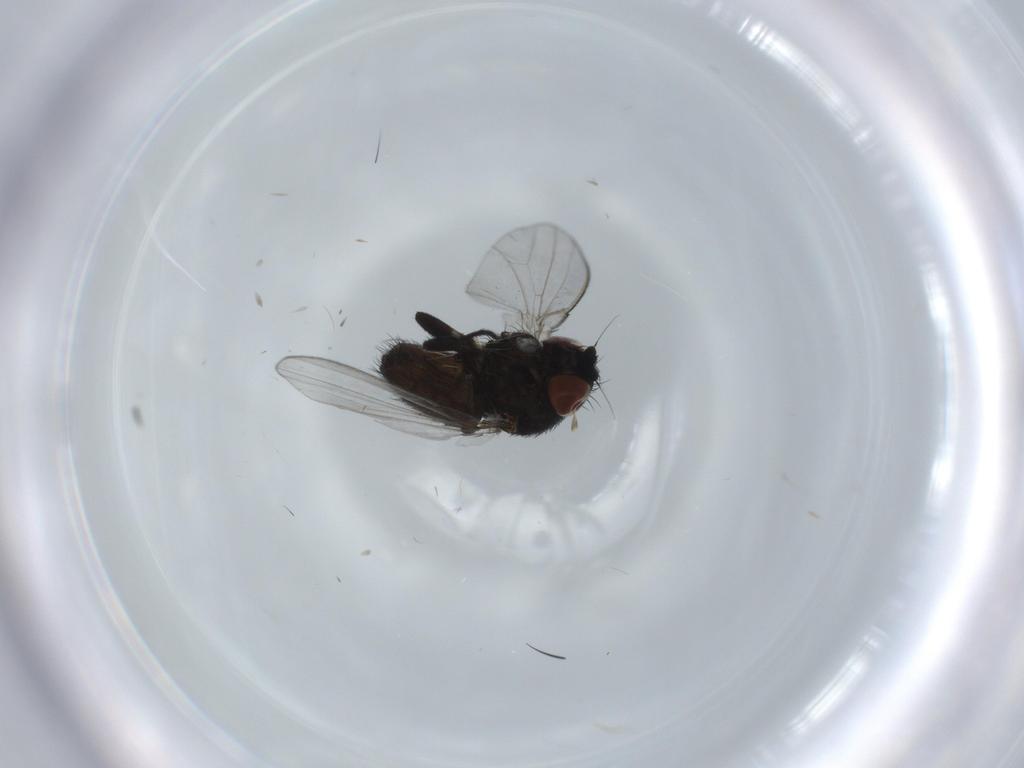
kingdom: Animalia
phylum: Arthropoda
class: Insecta
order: Diptera
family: Milichiidae
